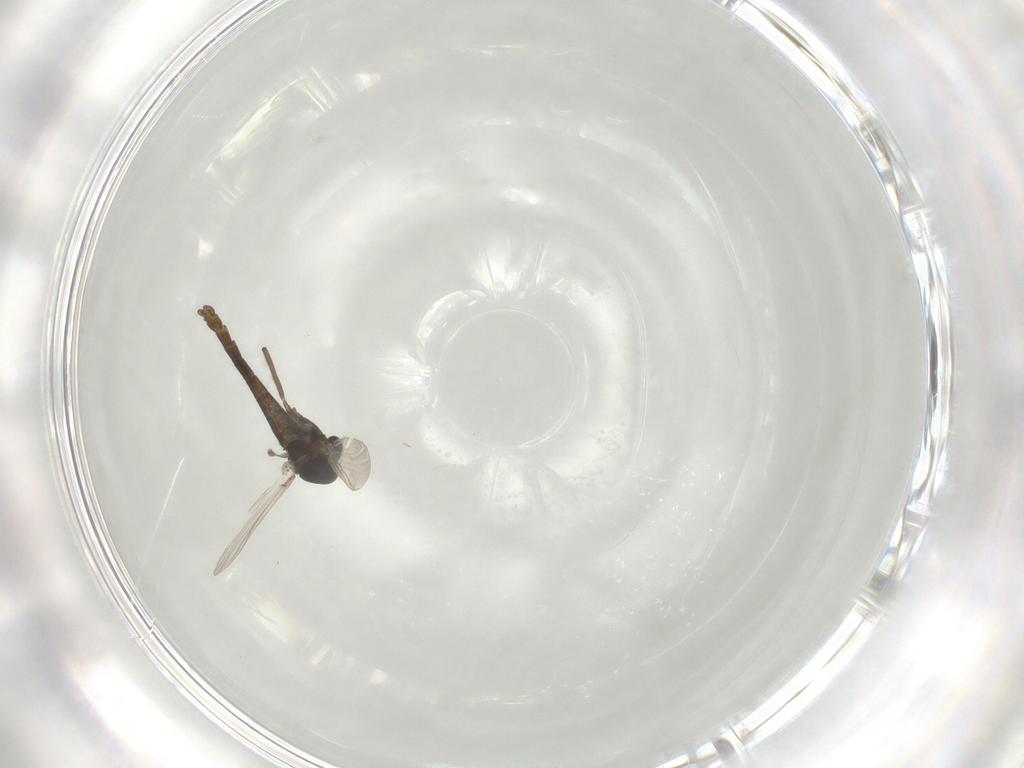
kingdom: Animalia
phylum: Arthropoda
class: Insecta
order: Diptera
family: Chironomidae
